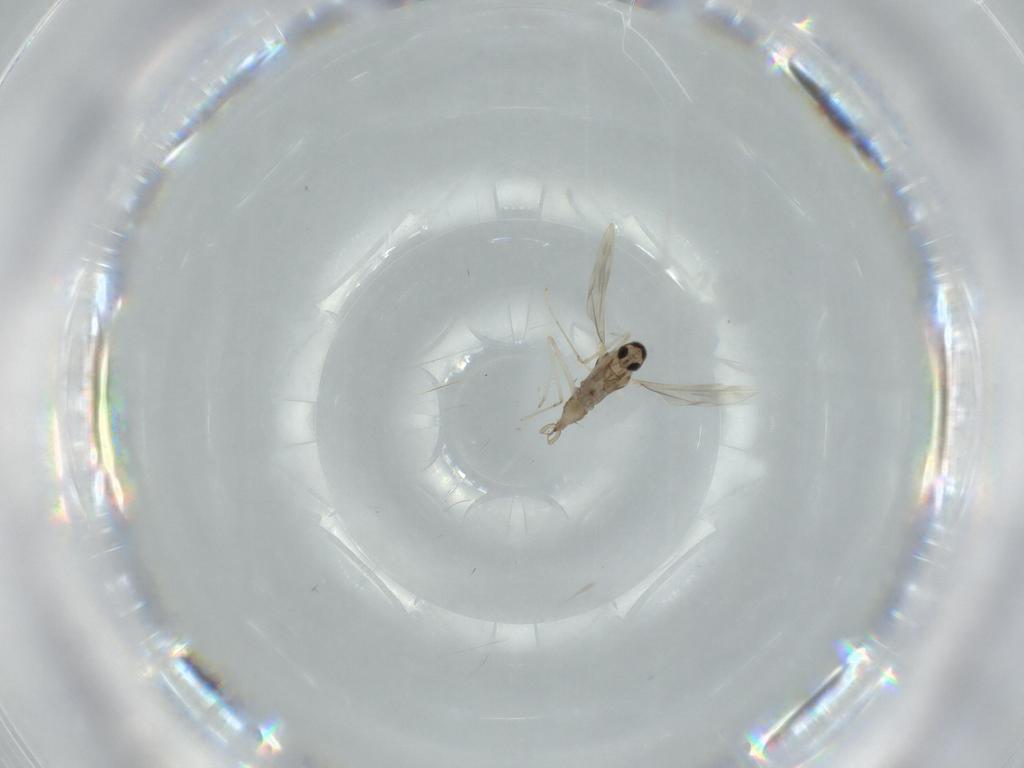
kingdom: Animalia
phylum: Arthropoda
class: Insecta
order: Diptera
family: Cecidomyiidae
